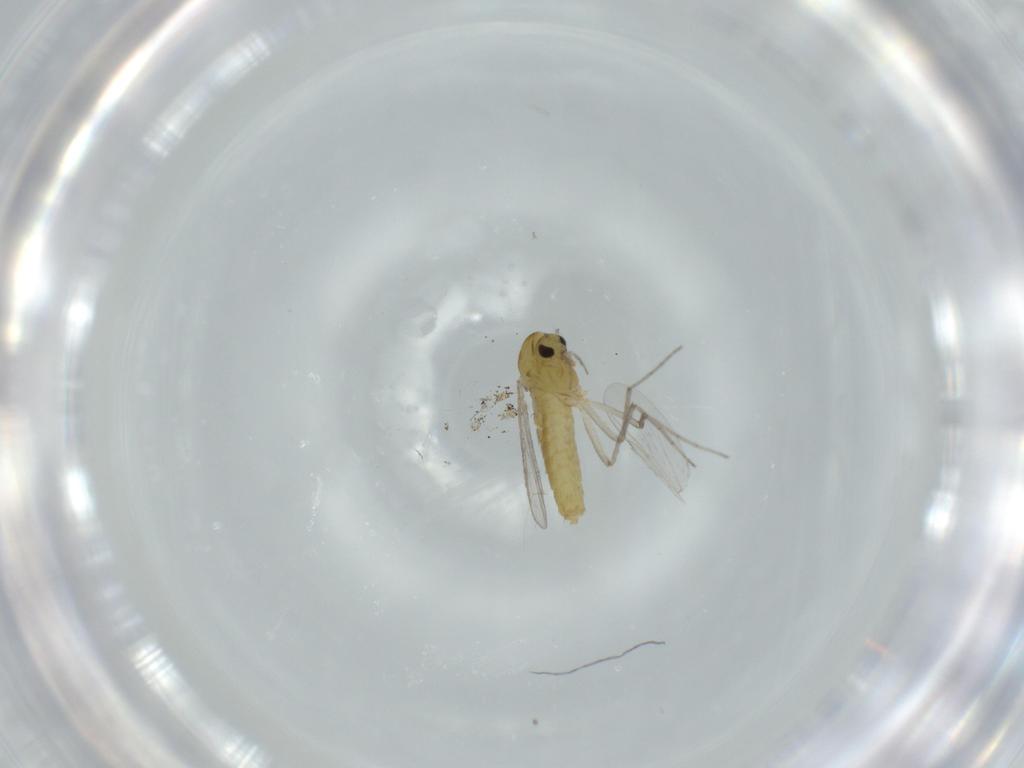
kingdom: Animalia
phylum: Arthropoda
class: Insecta
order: Diptera
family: Chironomidae
